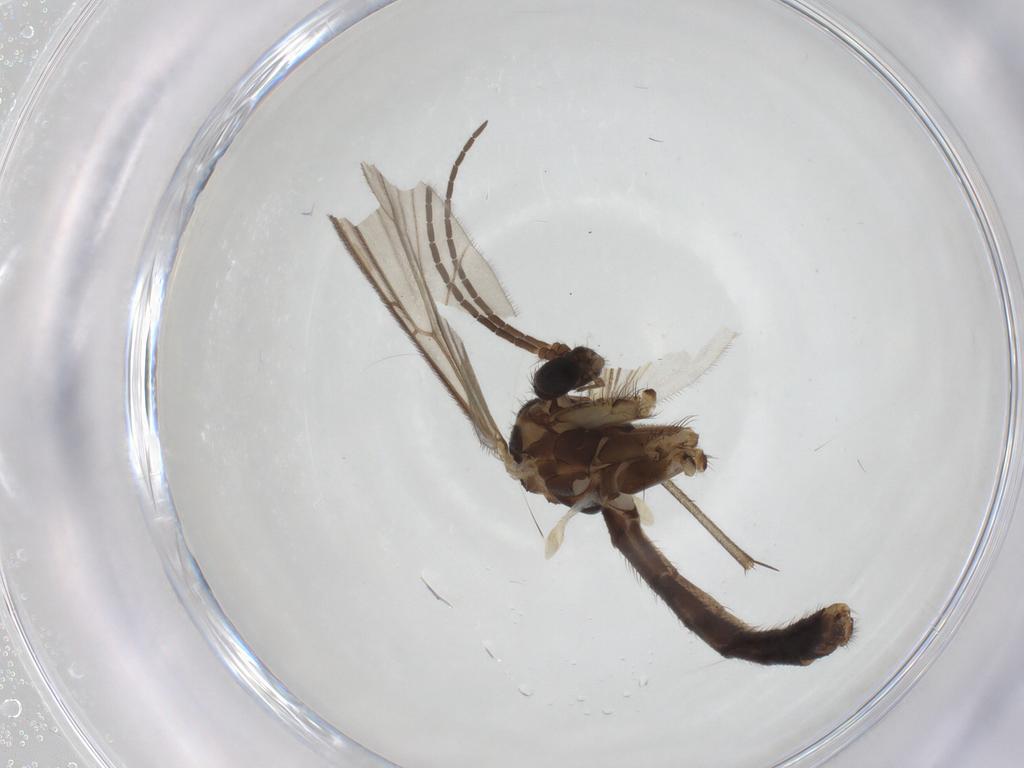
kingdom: Animalia
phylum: Arthropoda
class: Insecta
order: Diptera
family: Mycetophilidae
